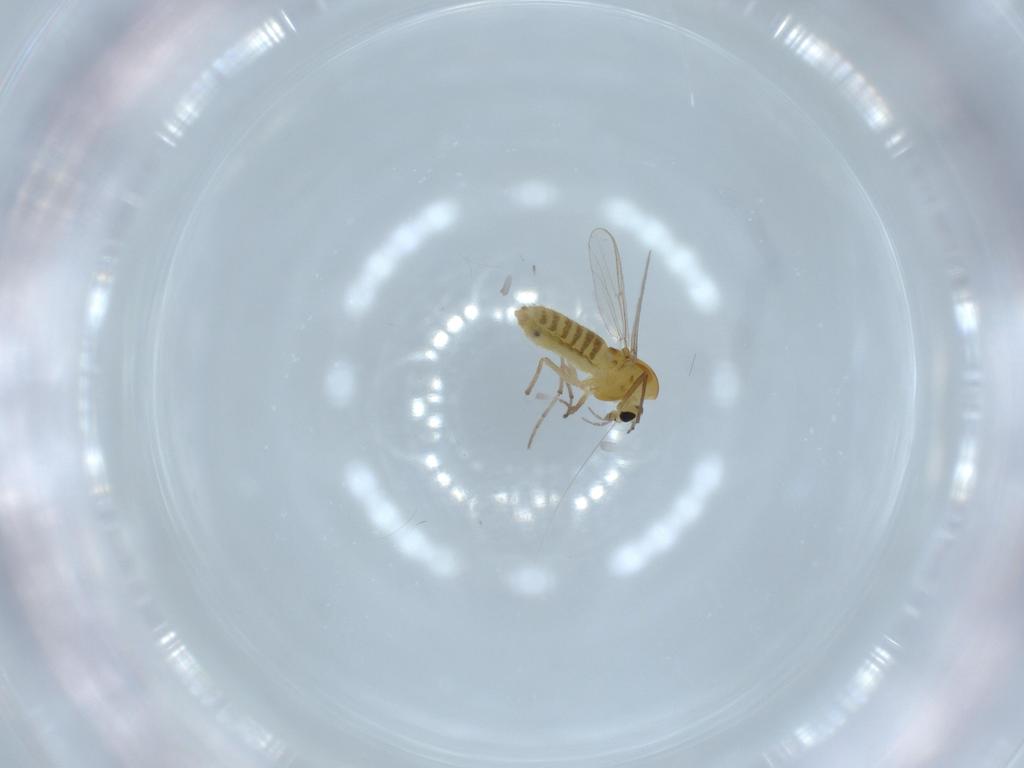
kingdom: Animalia
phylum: Arthropoda
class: Insecta
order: Diptera
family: Chironomidae
